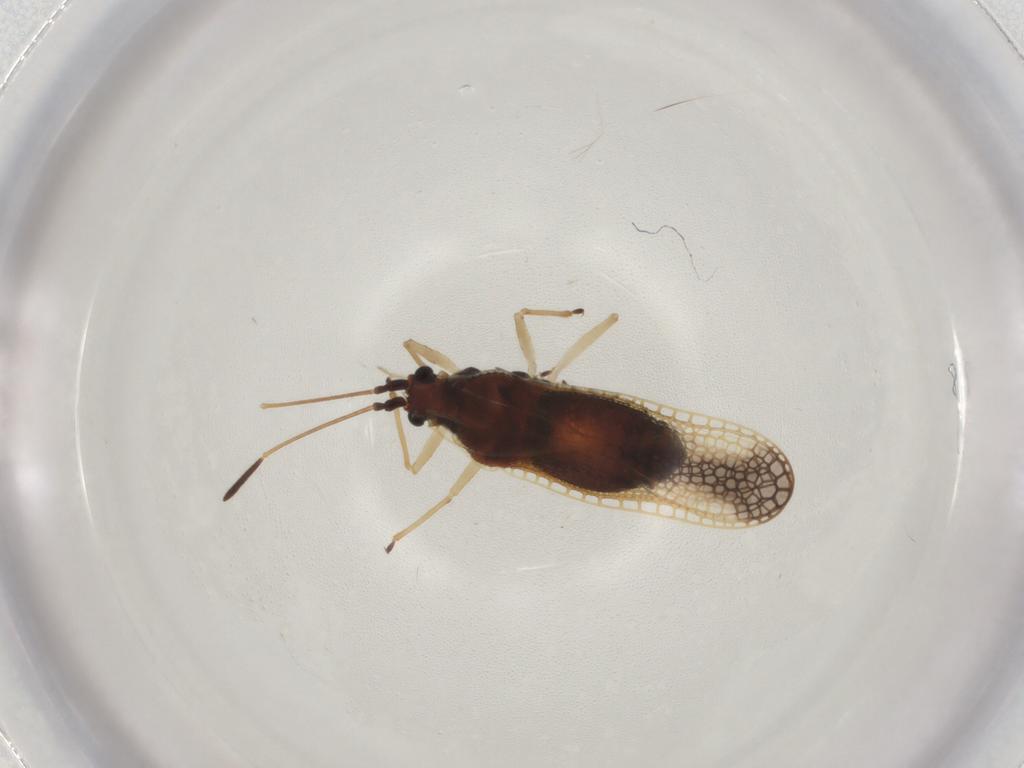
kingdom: Animalia
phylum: Arthropoda
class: Insecta
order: Hemiptera
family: Tingidae
